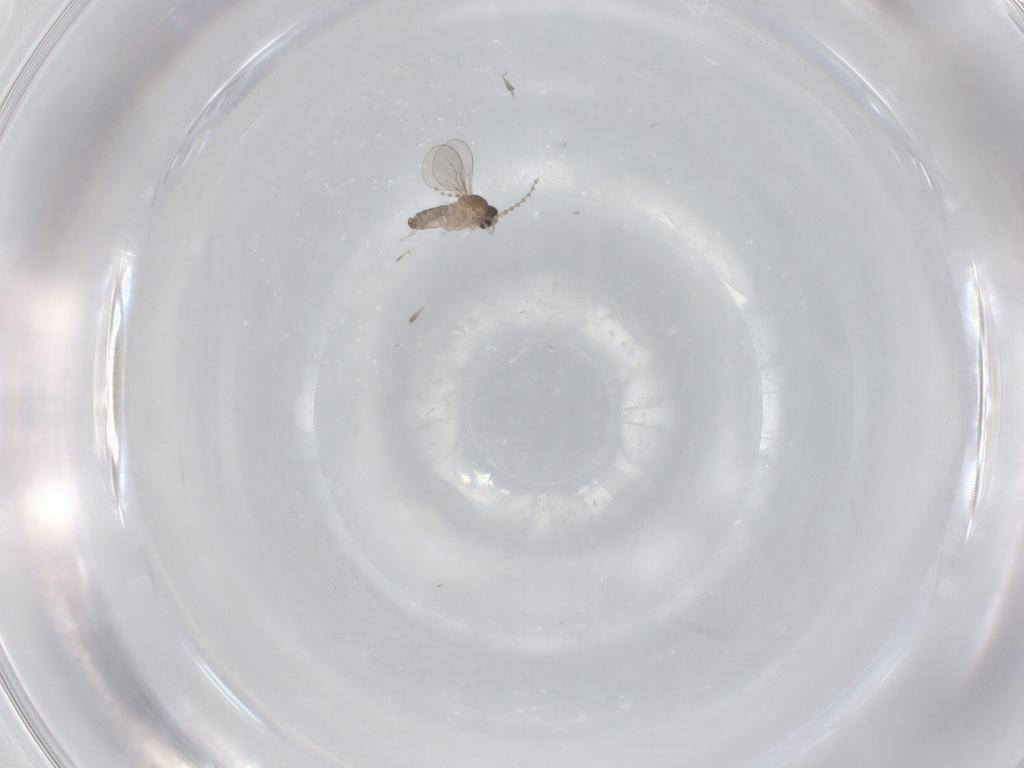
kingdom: Animalia
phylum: Arthropoda
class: Insecta
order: Diptera
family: Cecidomyiidae
